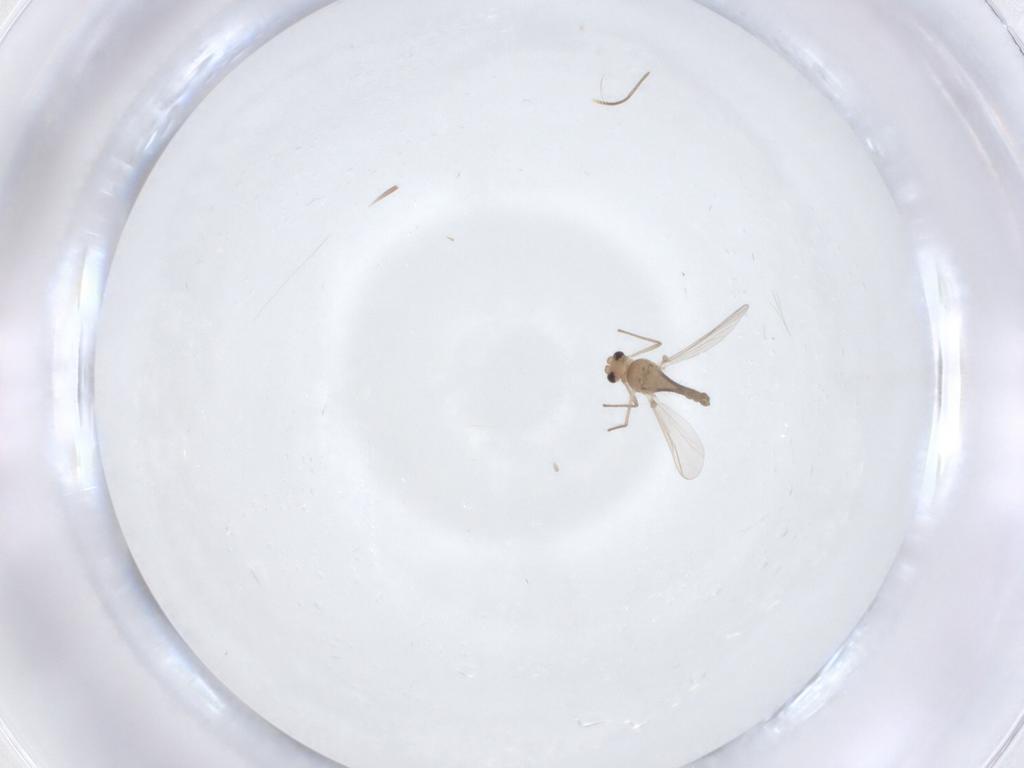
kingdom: Animalia
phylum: Arthropoda
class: Insecta
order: Diptera
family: Chironomidae
